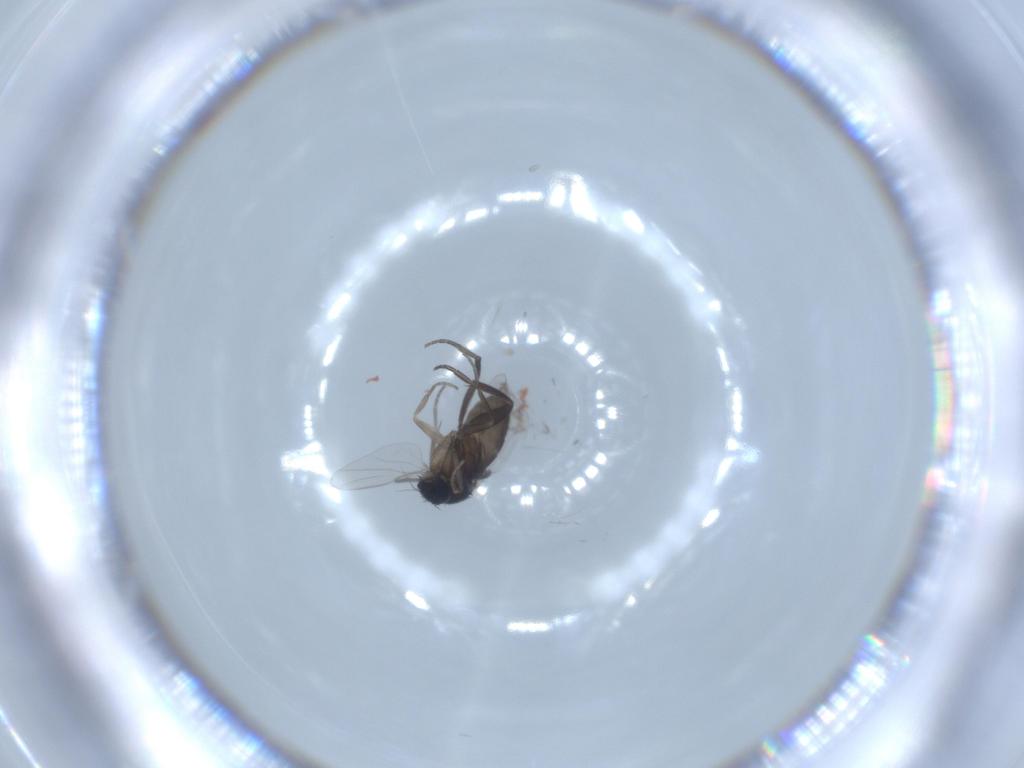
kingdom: Animalia
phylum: Arthropoda
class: Insecta
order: Diptera
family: Phoridae
